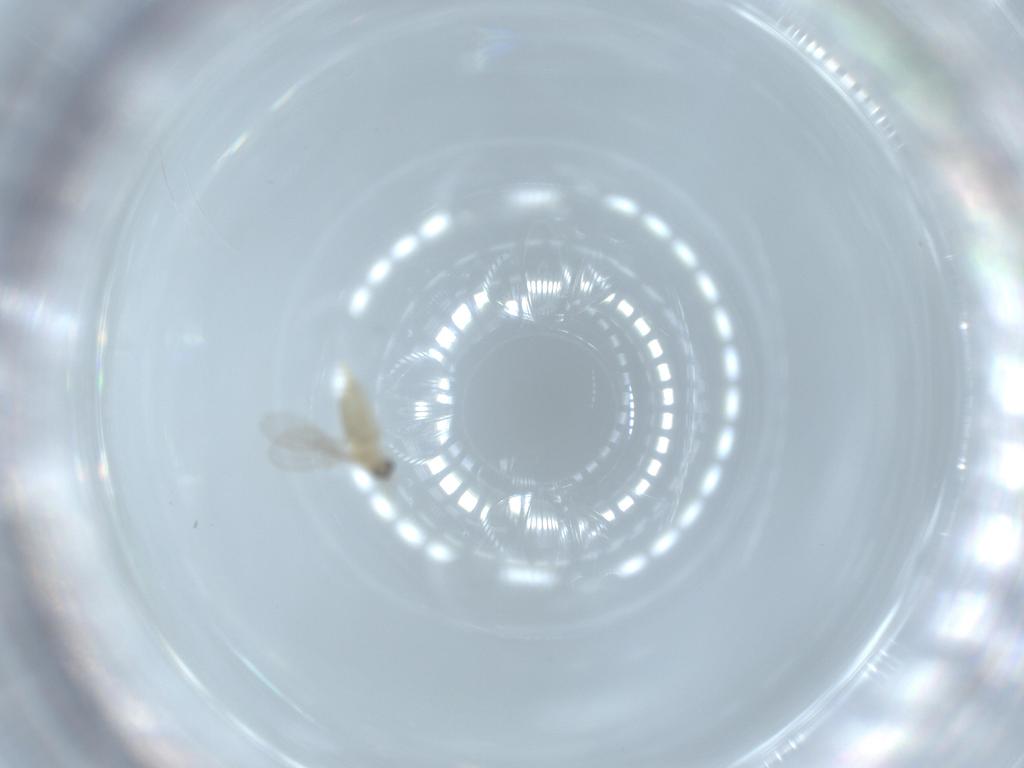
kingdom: Animalia
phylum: Arthropoda
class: Insecta
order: Diptera
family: Cecidomyiidae
